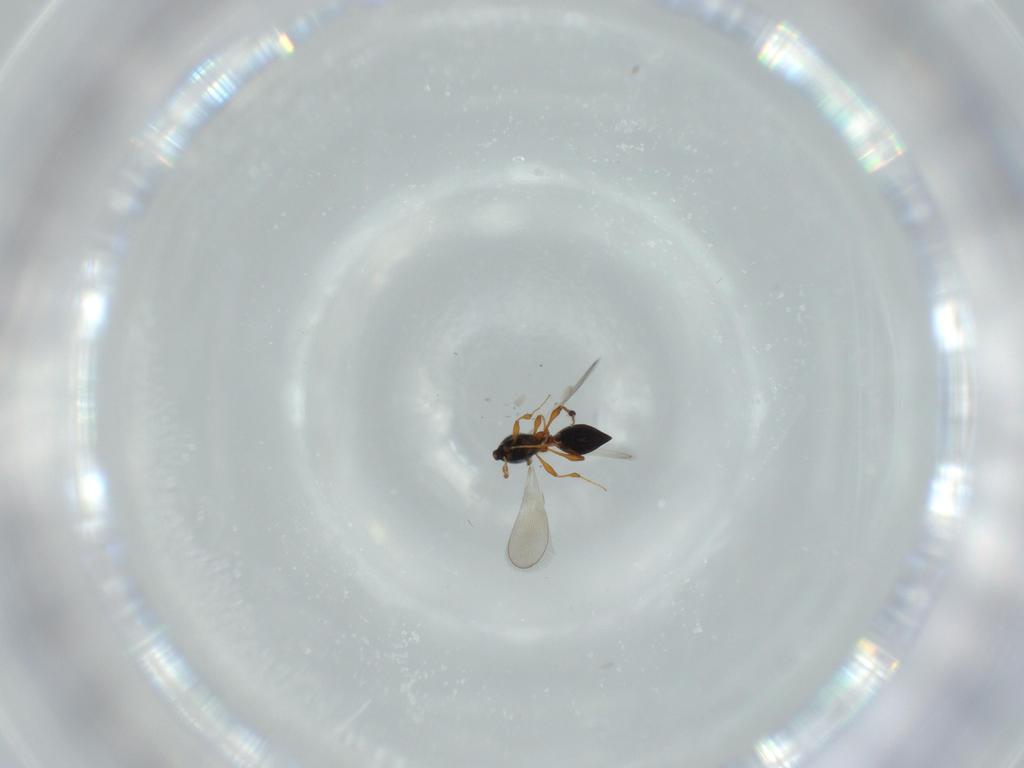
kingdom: Animalia
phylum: Arthropoda
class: Insecta
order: Hymenoptera
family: Platygastridae
